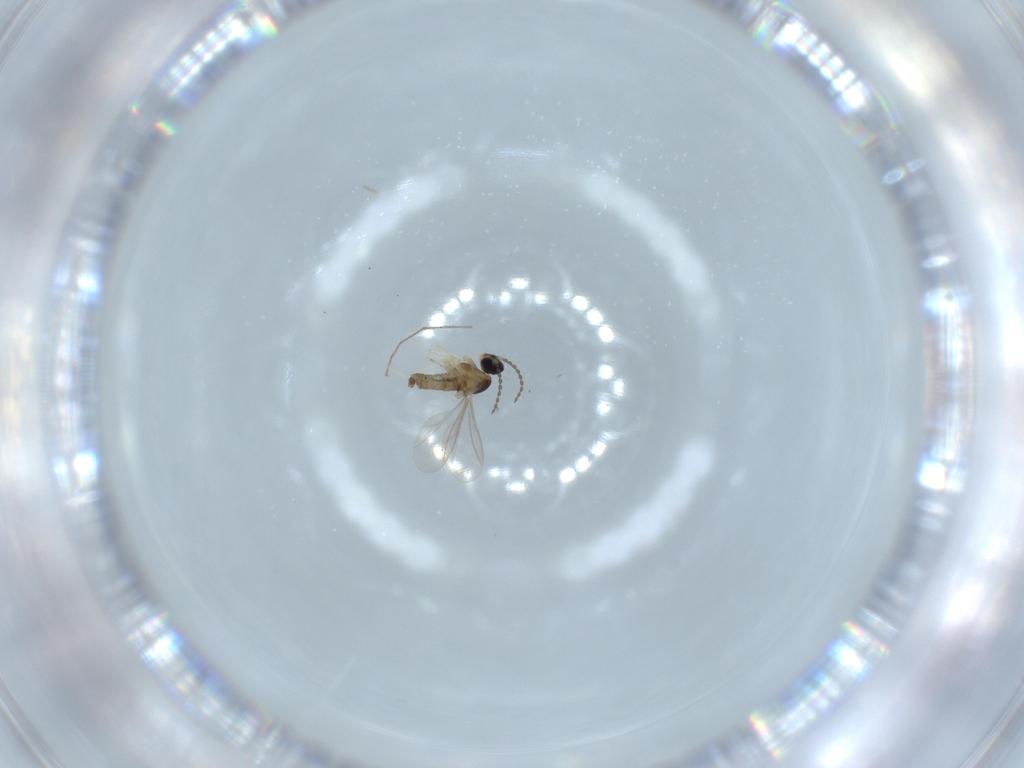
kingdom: Animalia
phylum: Arthropoda
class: Insecta
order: Diptera
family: Chironomidae
